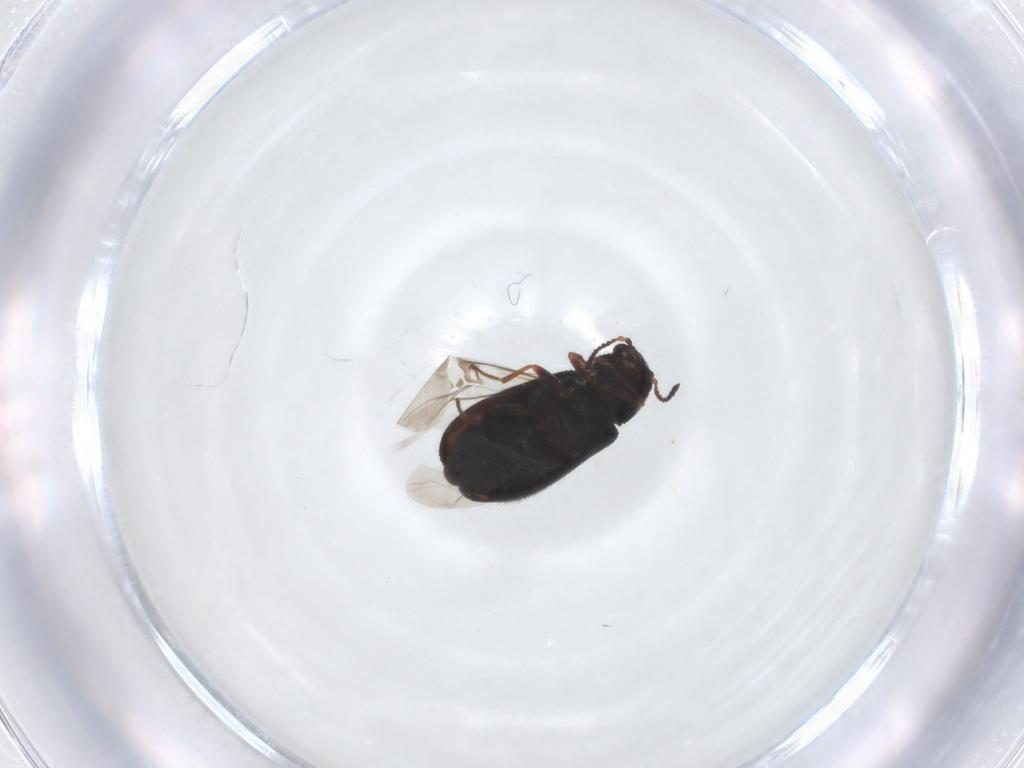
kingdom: Animalia
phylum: Arthropoda
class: Insecta
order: Coleoptera
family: Melyridae
